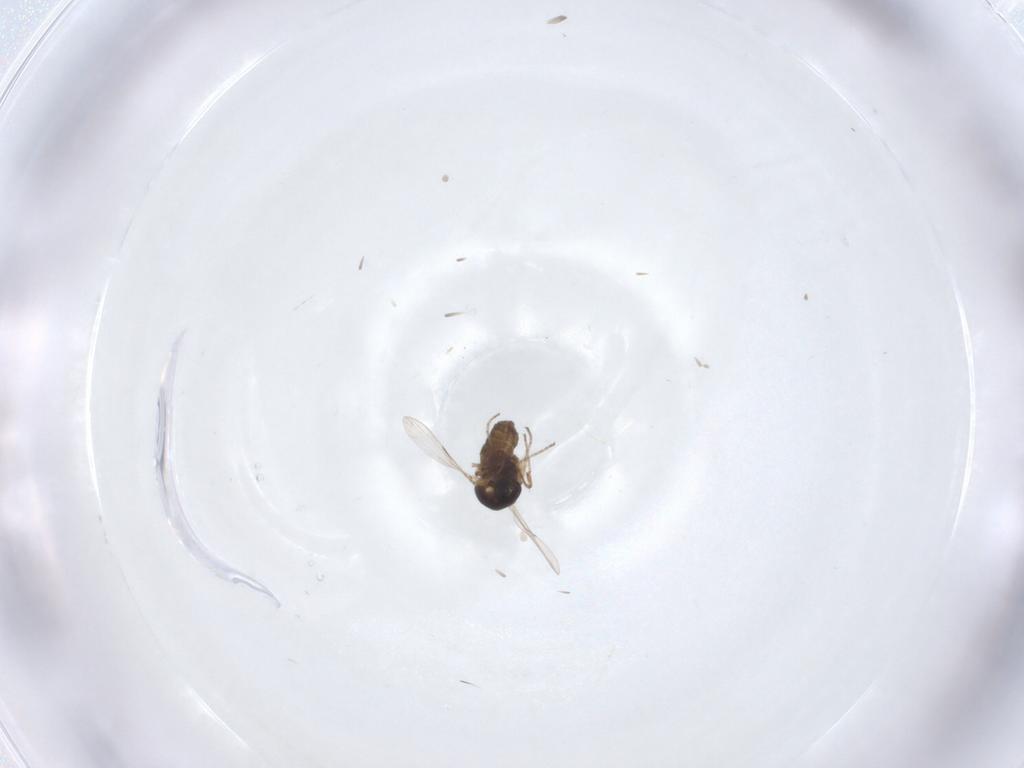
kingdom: Animalia
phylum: Arthropoda
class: Insecta
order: Diptera
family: Ceratopogonidae
